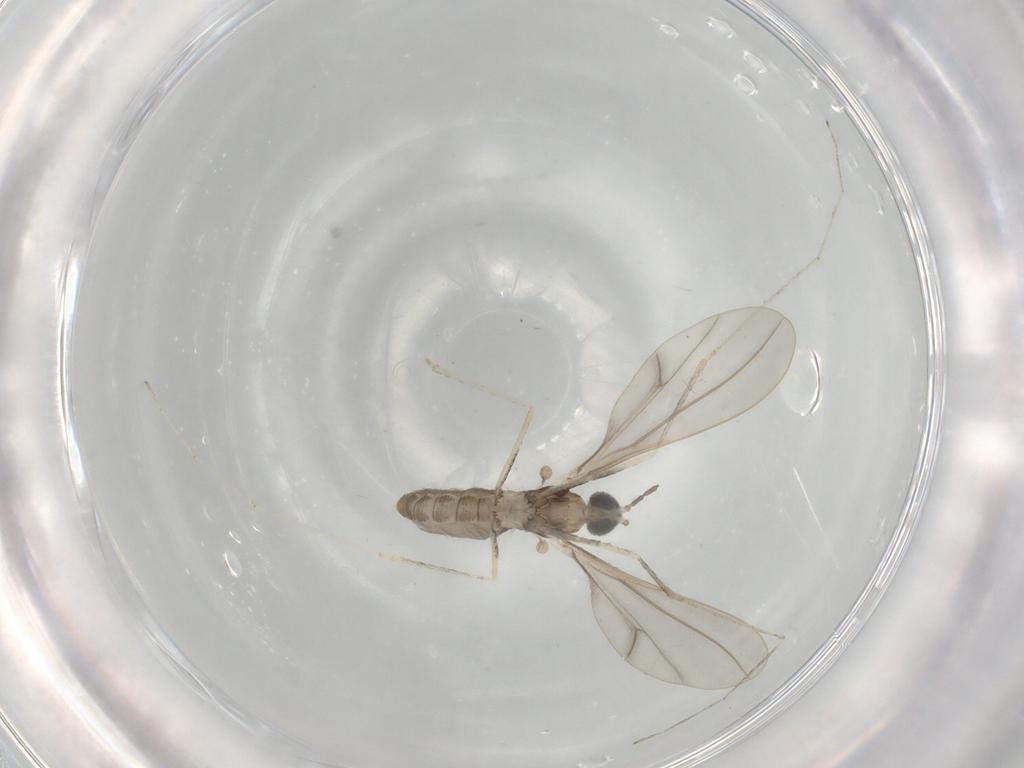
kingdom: Animalia
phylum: Arthropoda
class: Insecta
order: Diptera
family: Cecidomyiidae
